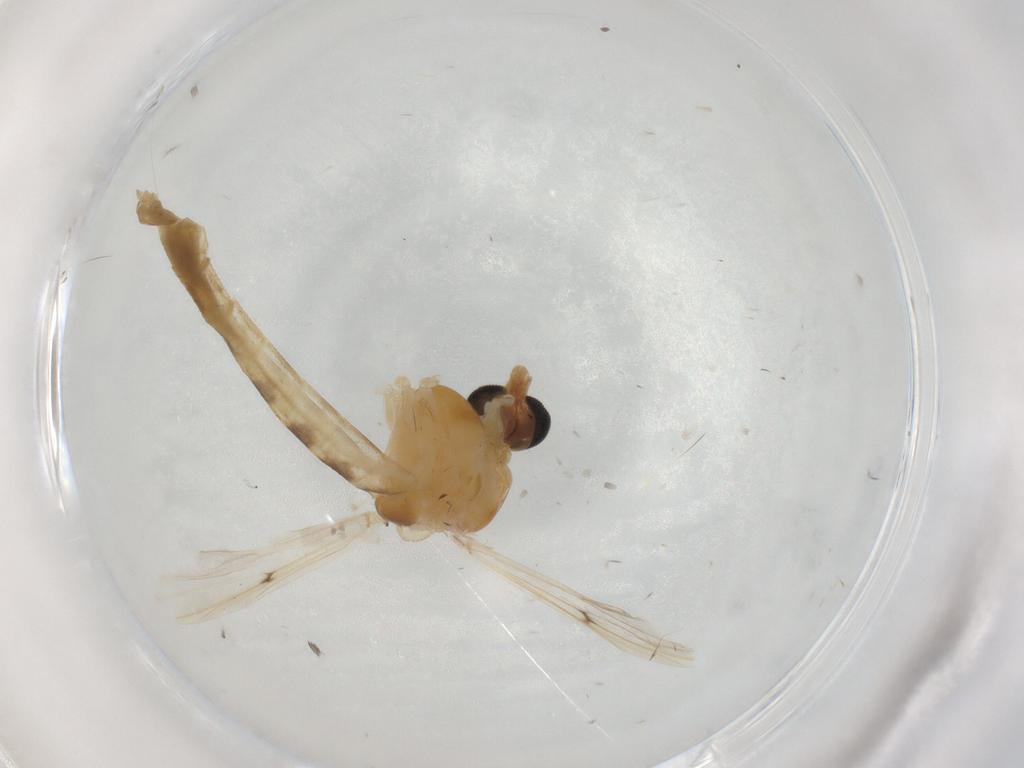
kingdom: Animalia
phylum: Arthropoda
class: Insecta
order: Diptera
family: Chironomidae
